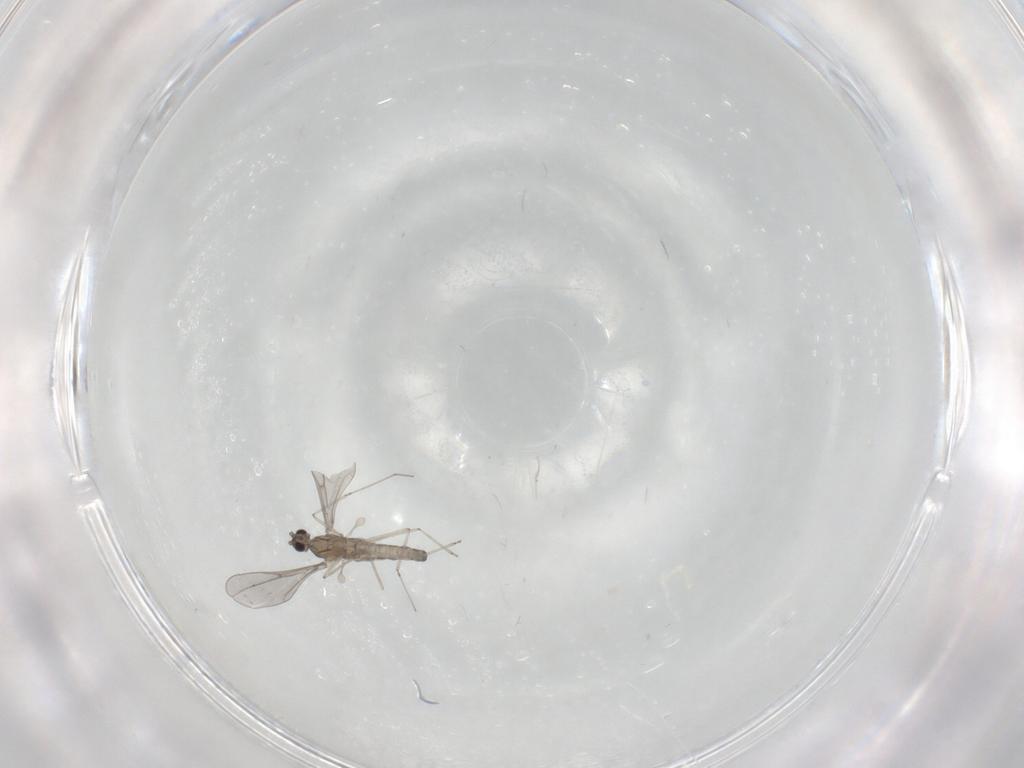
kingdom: Animalia
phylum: Arthropoda
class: Insecta
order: Diptera
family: Cecidomyiidae
